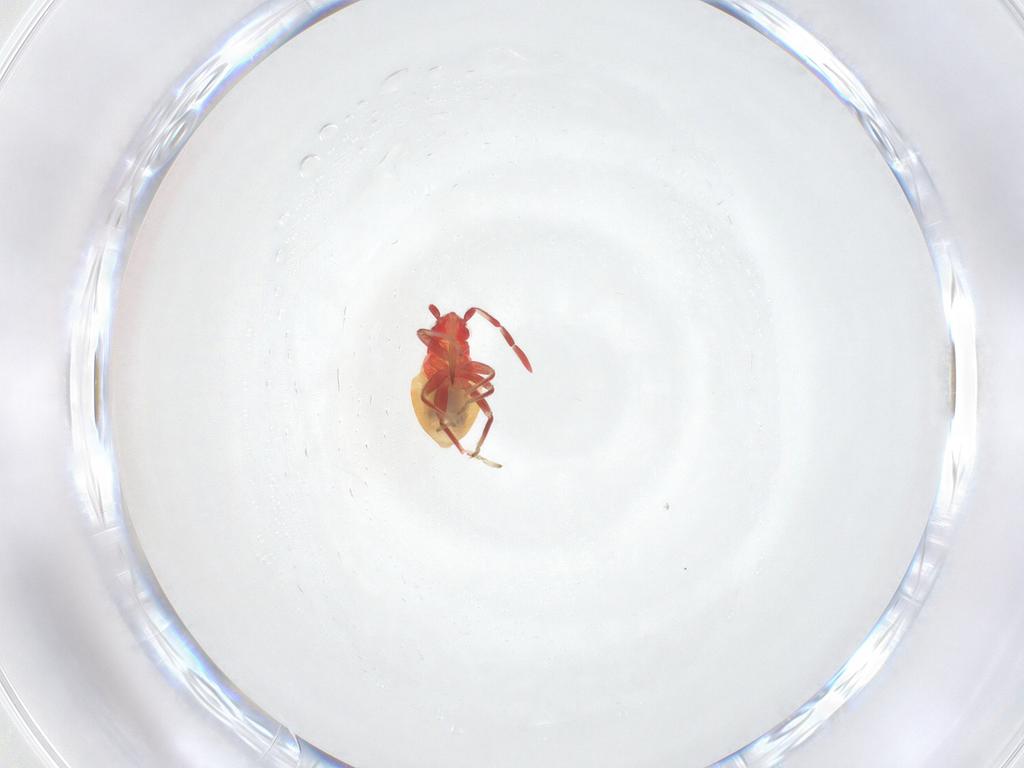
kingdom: Animalia
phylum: Arthropoda
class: Insecta
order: Hemiptera
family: Miridae
